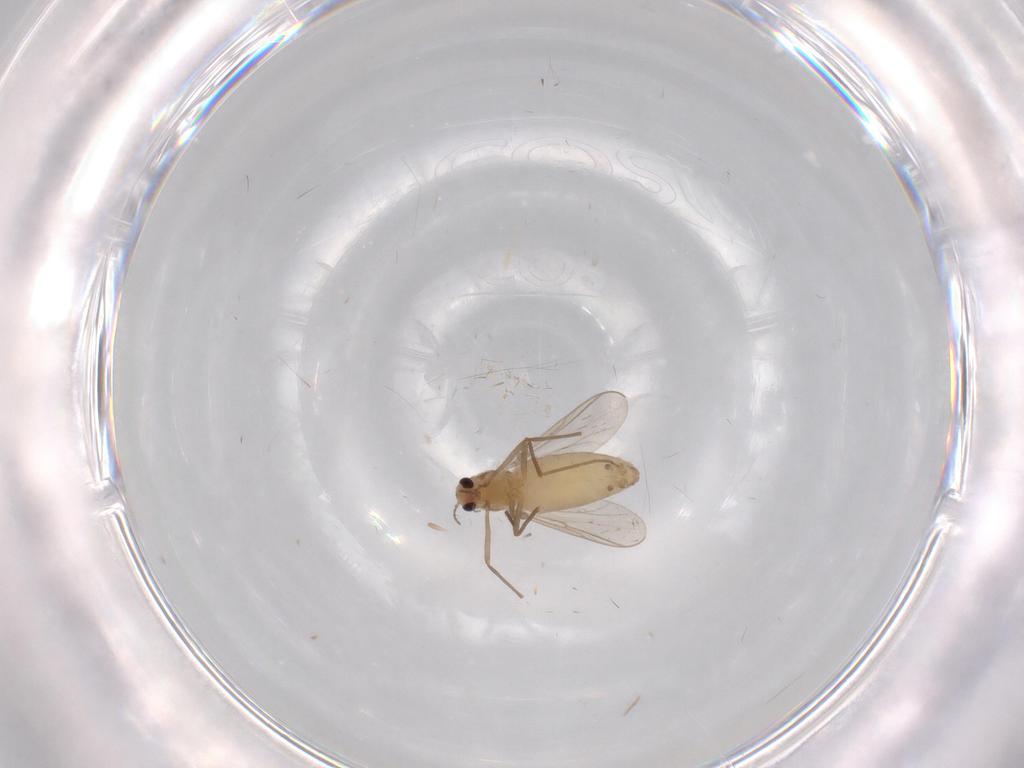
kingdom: Animalia
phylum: Arthropoda
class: Insecta
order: Diptera
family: Chironomidae
